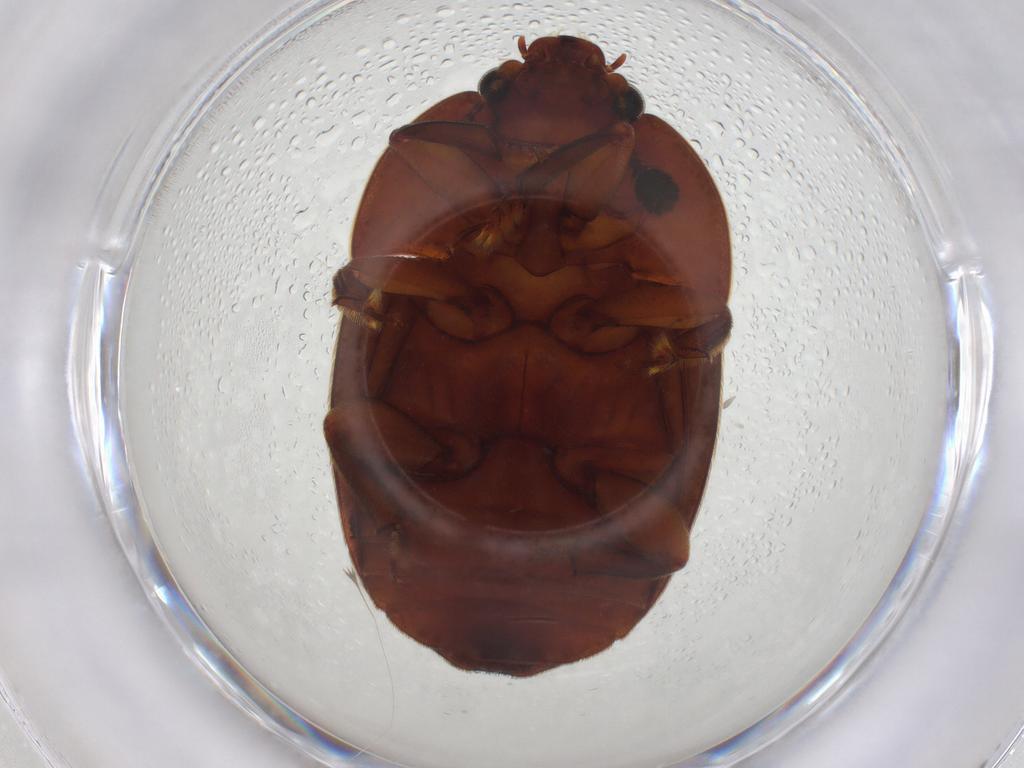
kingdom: Animalia
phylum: Arthropoda
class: Insecta
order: Coleoptera
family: Nitidulidae
